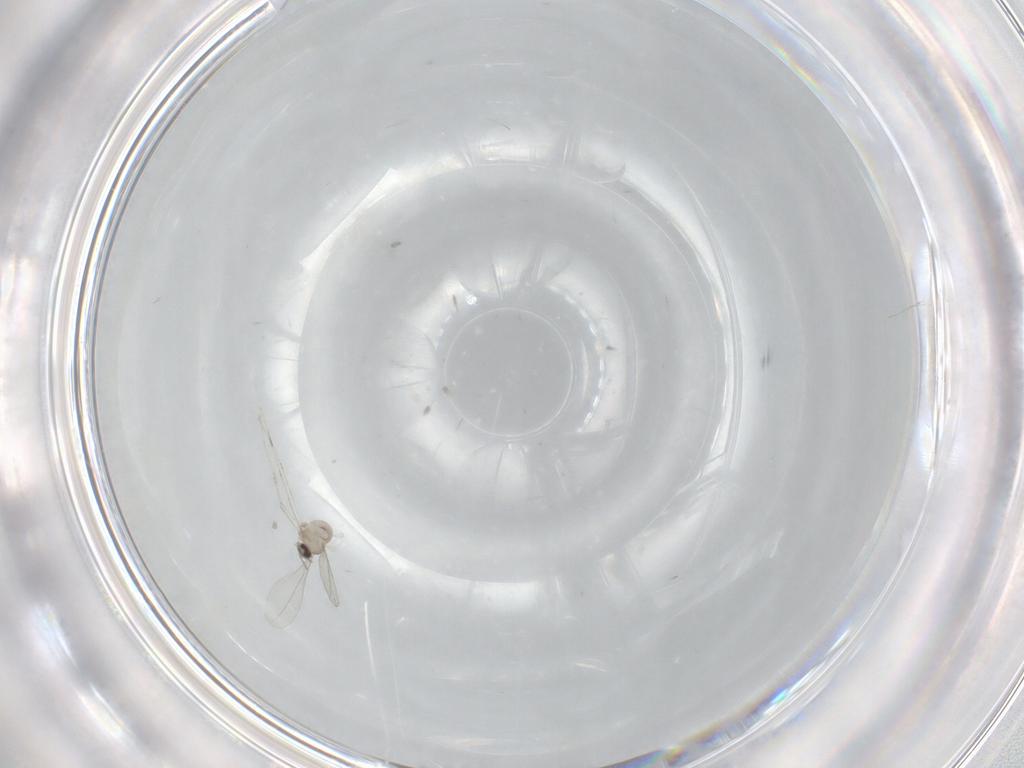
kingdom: Animalia
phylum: Arthropoda
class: Insecta
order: Diptera
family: Cecidomyiidae
